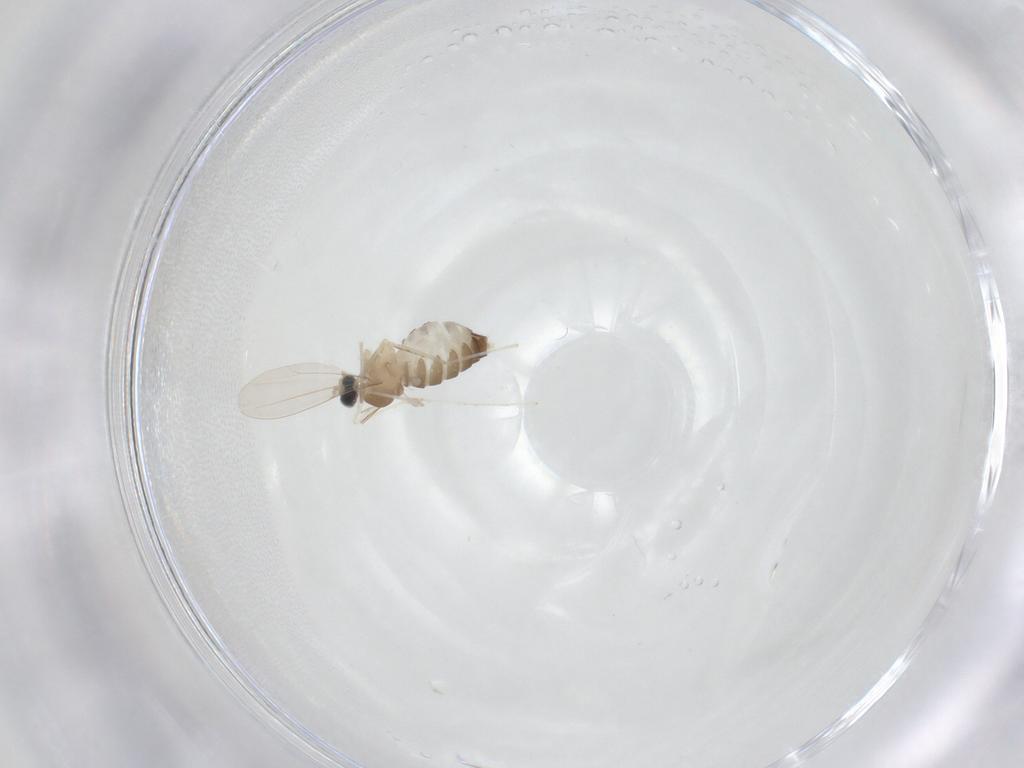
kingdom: Animalia
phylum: Arthropoda
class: Insecta
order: Diptera
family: Cecidomyiidae
